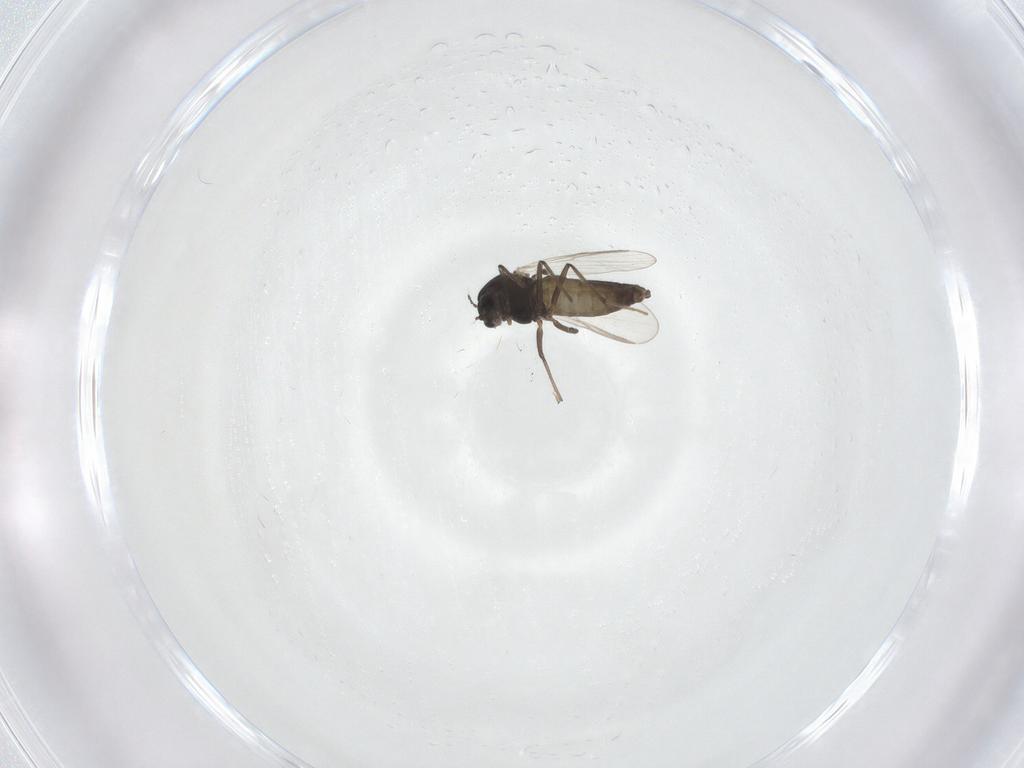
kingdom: Animalia
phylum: Arthropoda
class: Insecta
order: Diptera
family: Chironomidae
